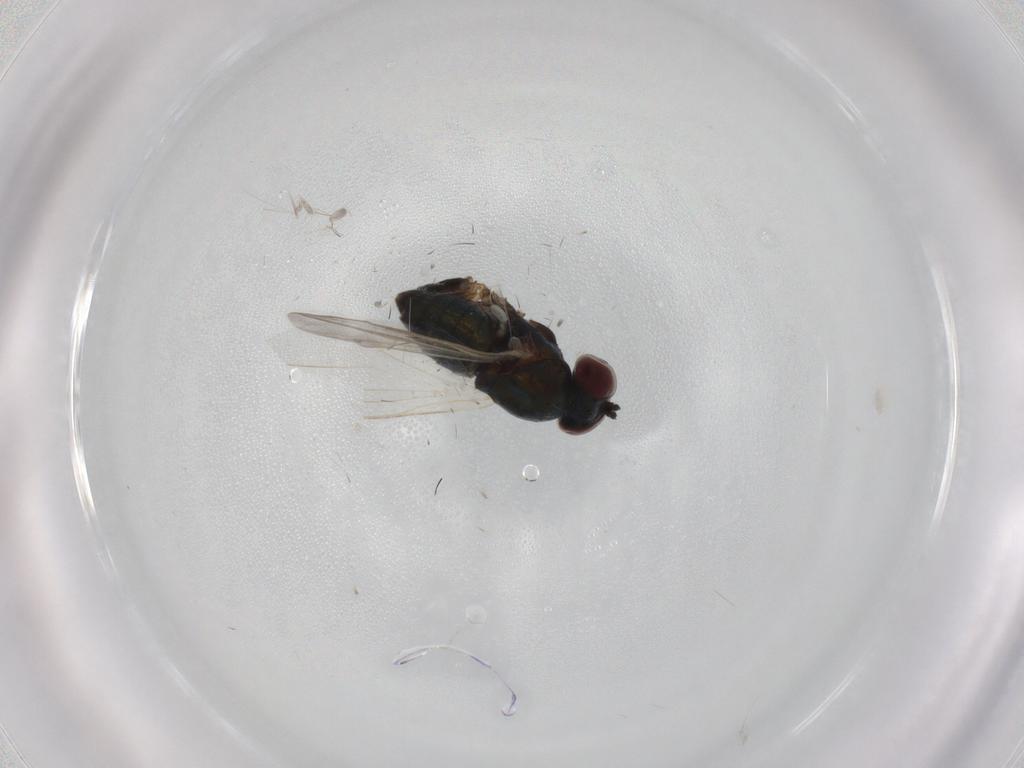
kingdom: Animalia
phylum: Arthropoda
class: Insecta
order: Diptera
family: Dolichopodidae
